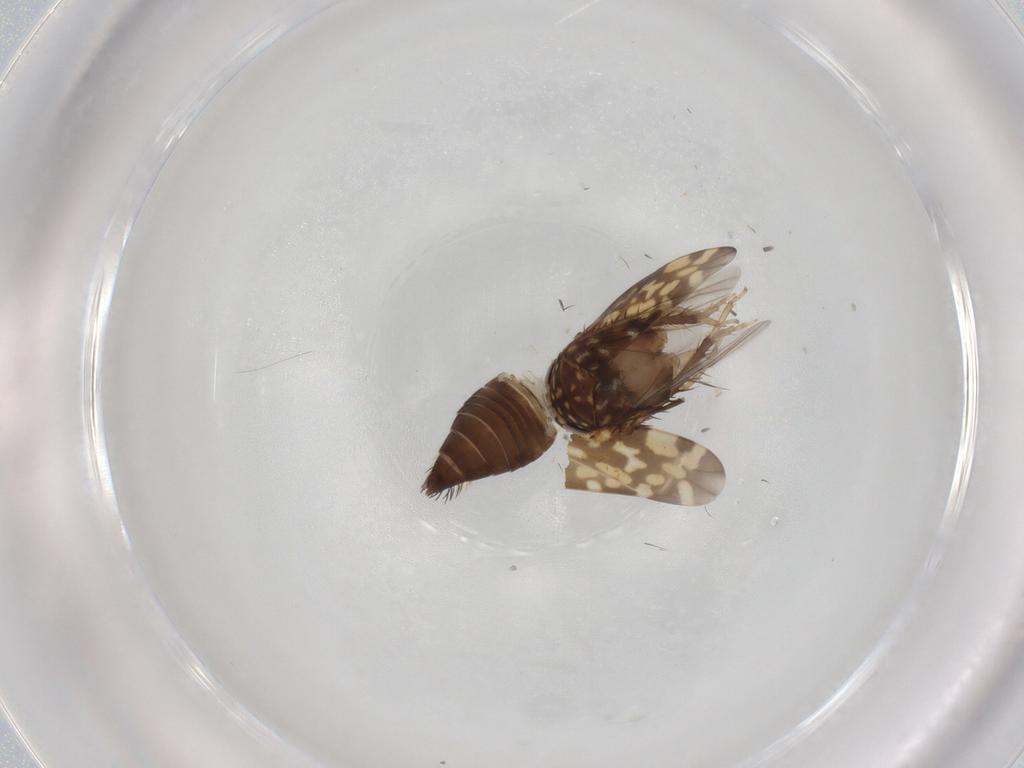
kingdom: Animalia
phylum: Arthropoda
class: Insecta
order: Hemiptera
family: Cicadellidae
